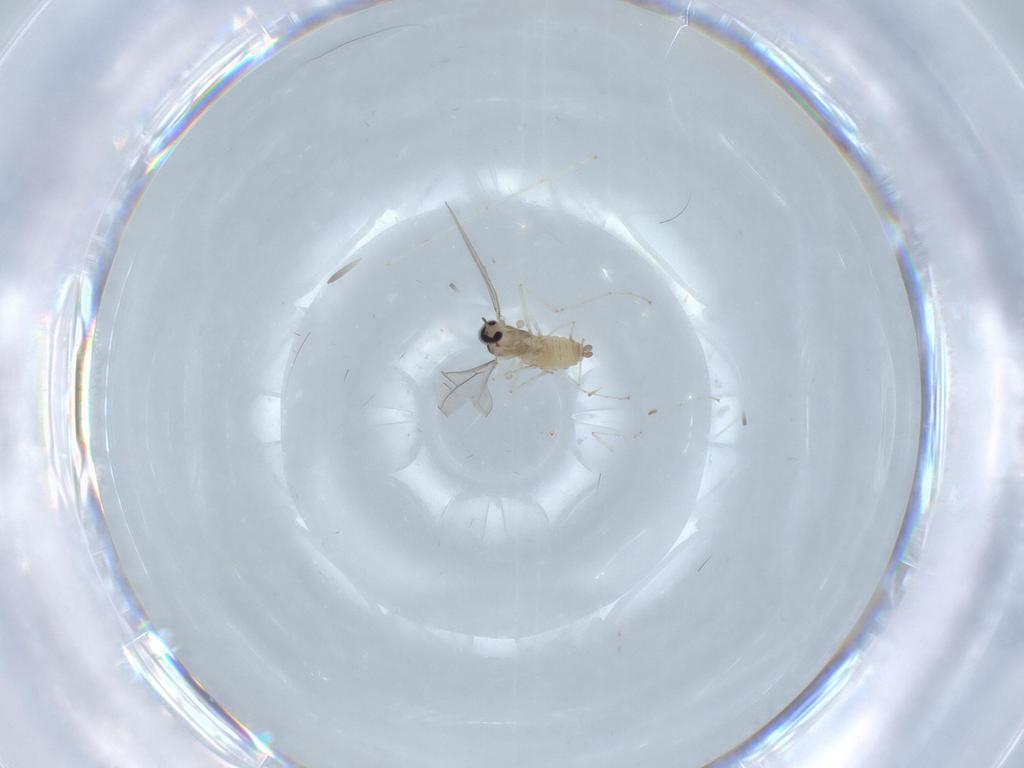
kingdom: Animalia
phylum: Arthropoda
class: Insecta
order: Diptera
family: Cecidomyiidae
